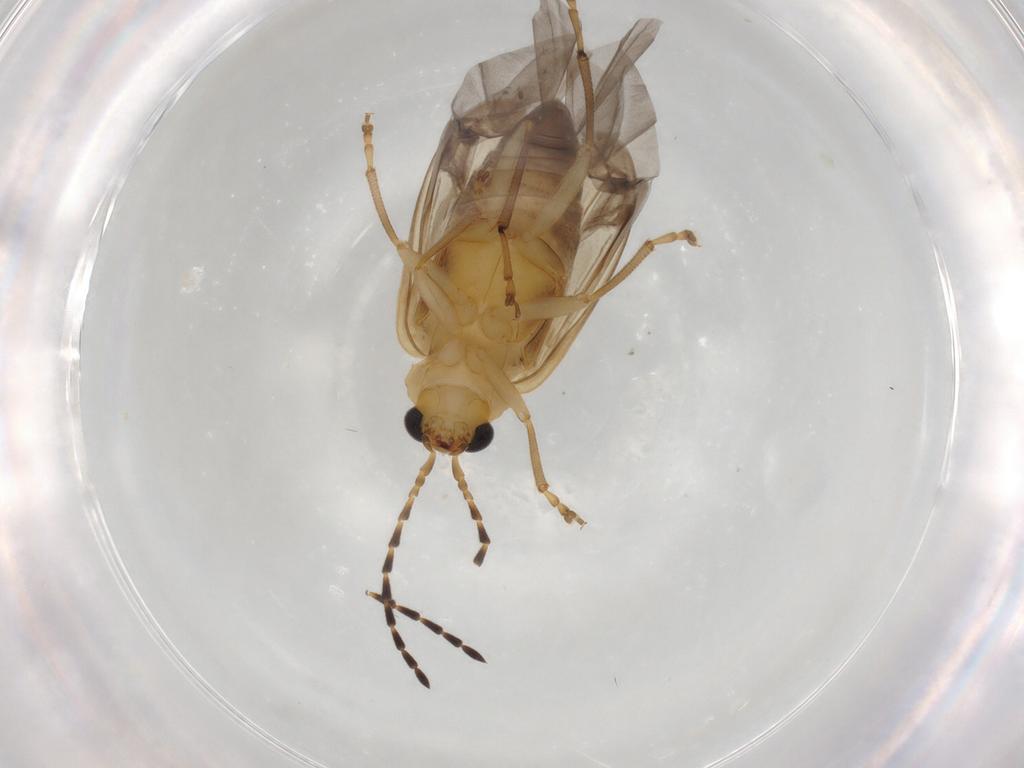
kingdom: Animalia
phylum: Arthropoda
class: Insecta
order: Coleoptera
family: Chrysomelidae
